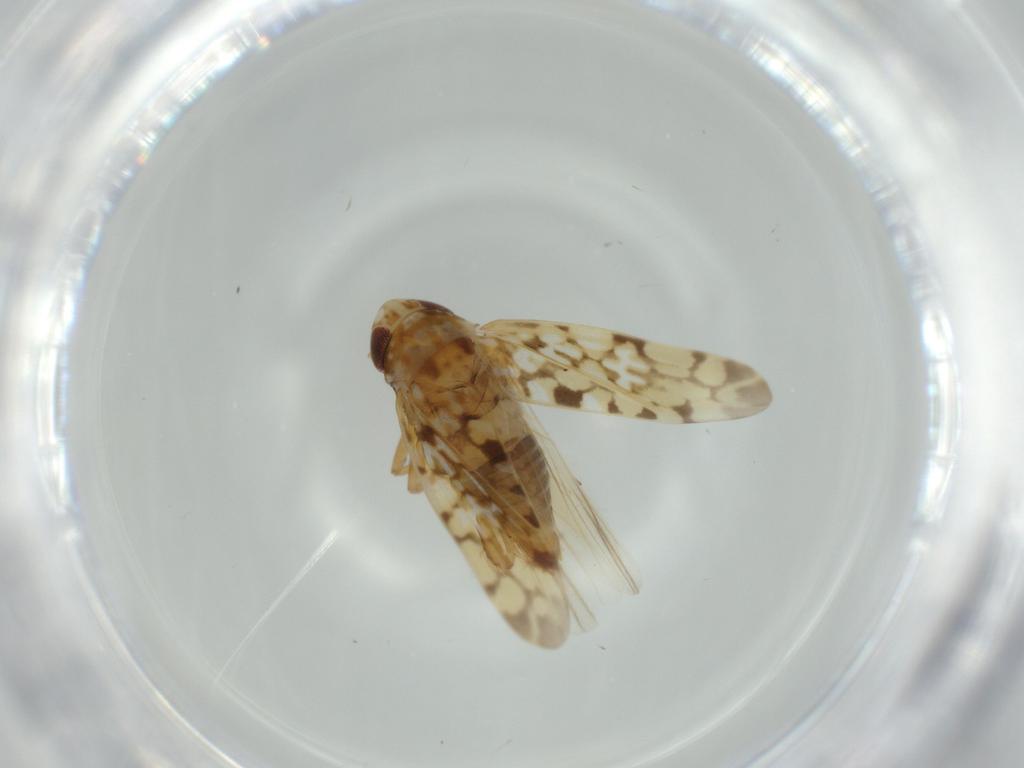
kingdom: Animalia
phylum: Arthropoda
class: Insecta
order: Hemiptera
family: Cicadellidae
